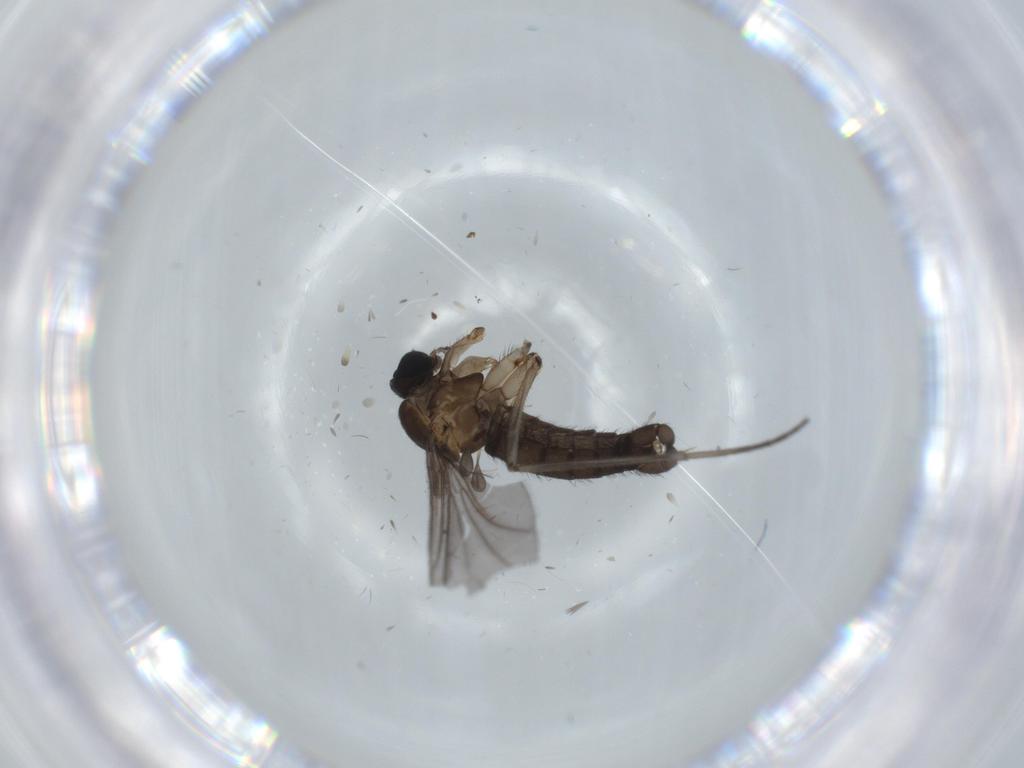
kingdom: Animalia
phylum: Arthropoda
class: Insecta
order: Diptera
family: Cecidomyiidae
